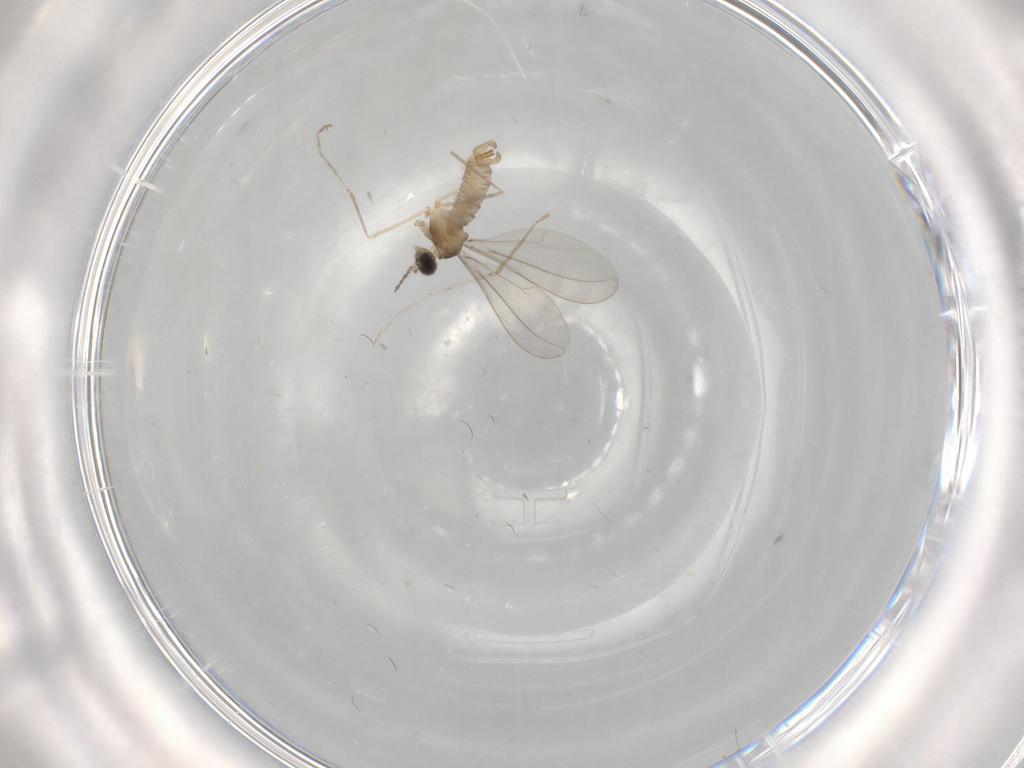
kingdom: Animalia
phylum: Arthropoda
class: Insecta
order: Diptera
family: Cecidomyiidae
